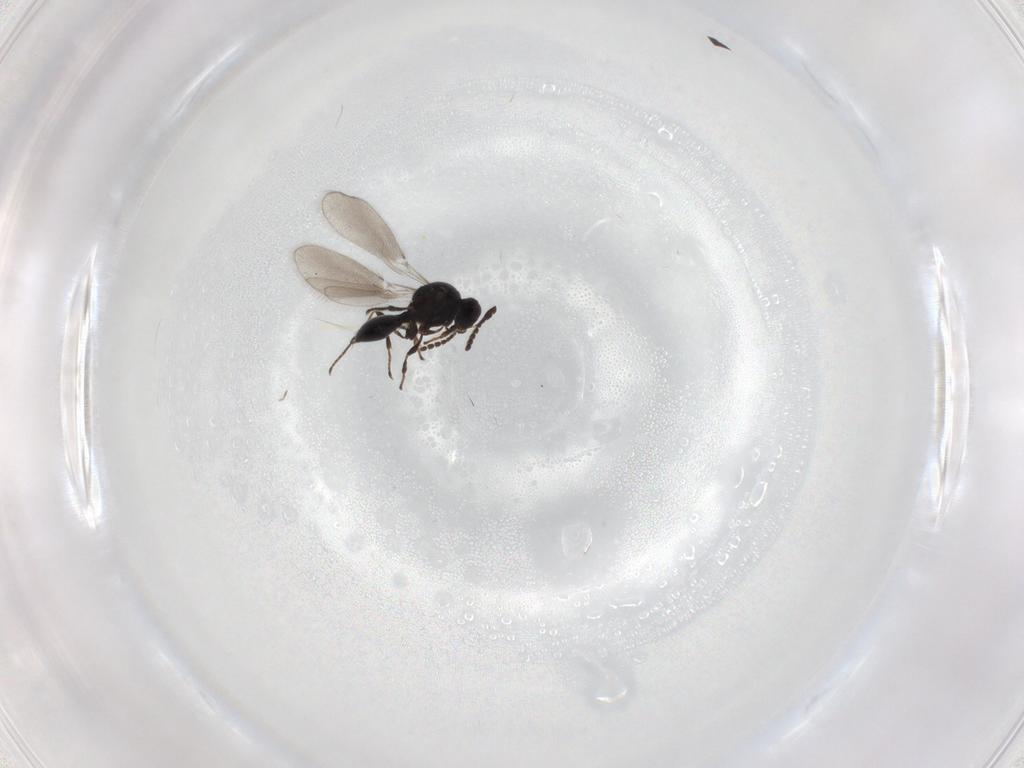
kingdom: Animalia
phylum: Arthropoda
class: Insecta
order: Hymenoptera
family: Platygastridae
